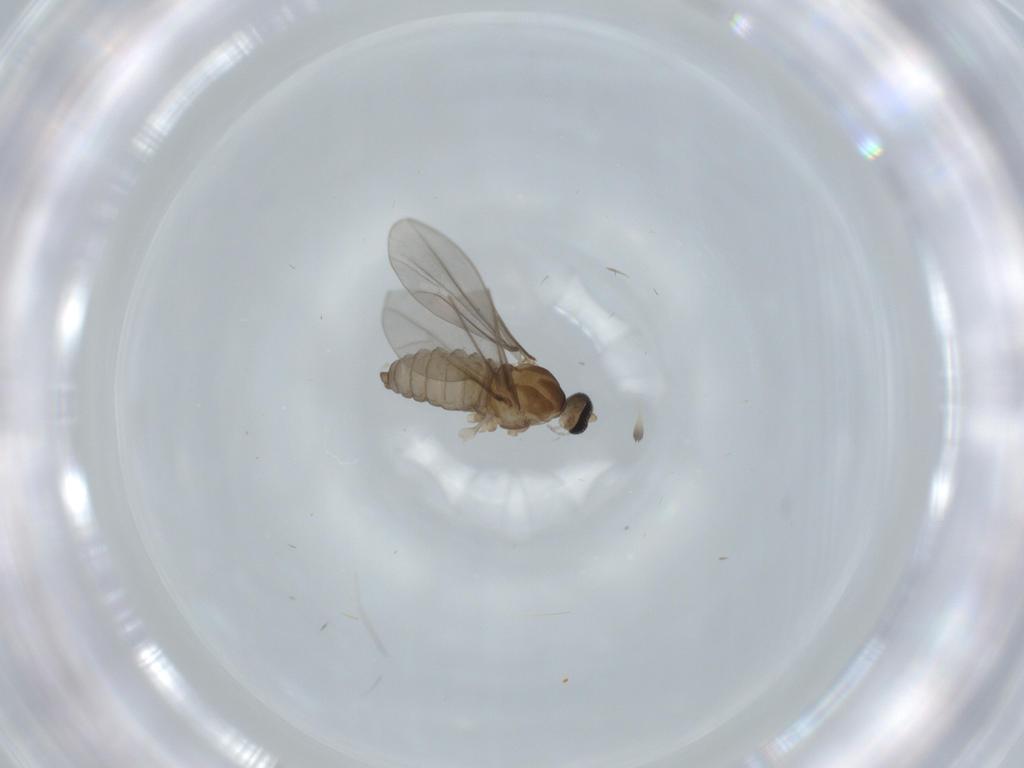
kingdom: Animalia
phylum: Arthropoda
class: Insecta
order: Diptera
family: Cecidomyiidae
